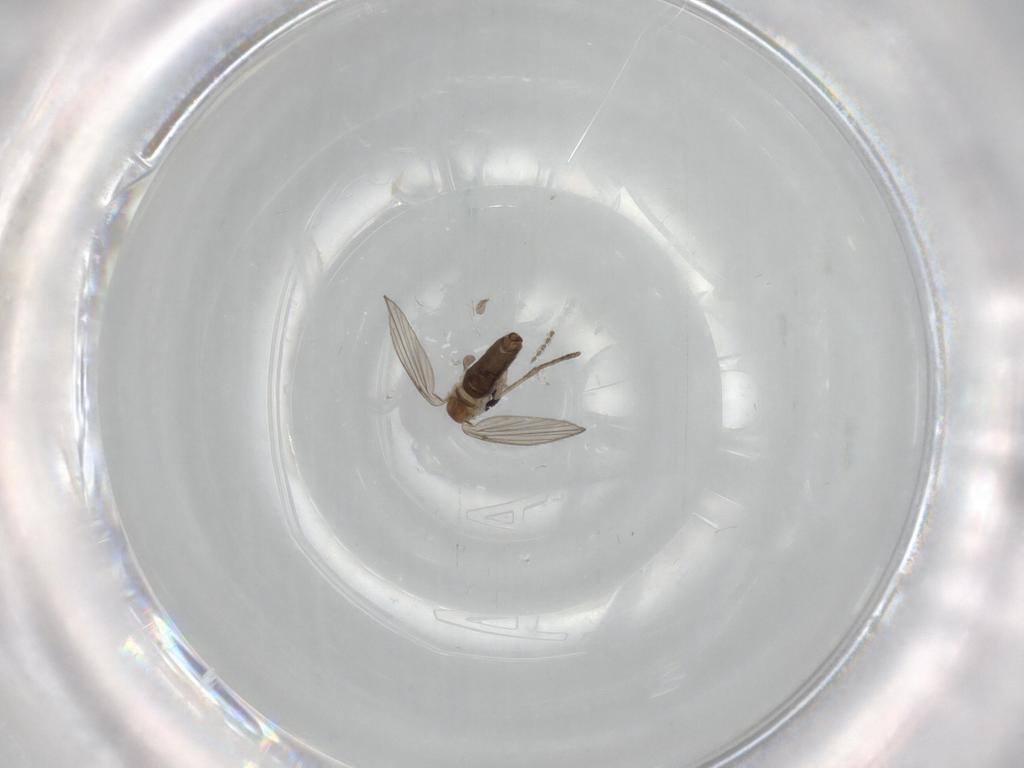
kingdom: Animalia
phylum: Arthropoda
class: Insecta
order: Diptera
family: Psychodidae
